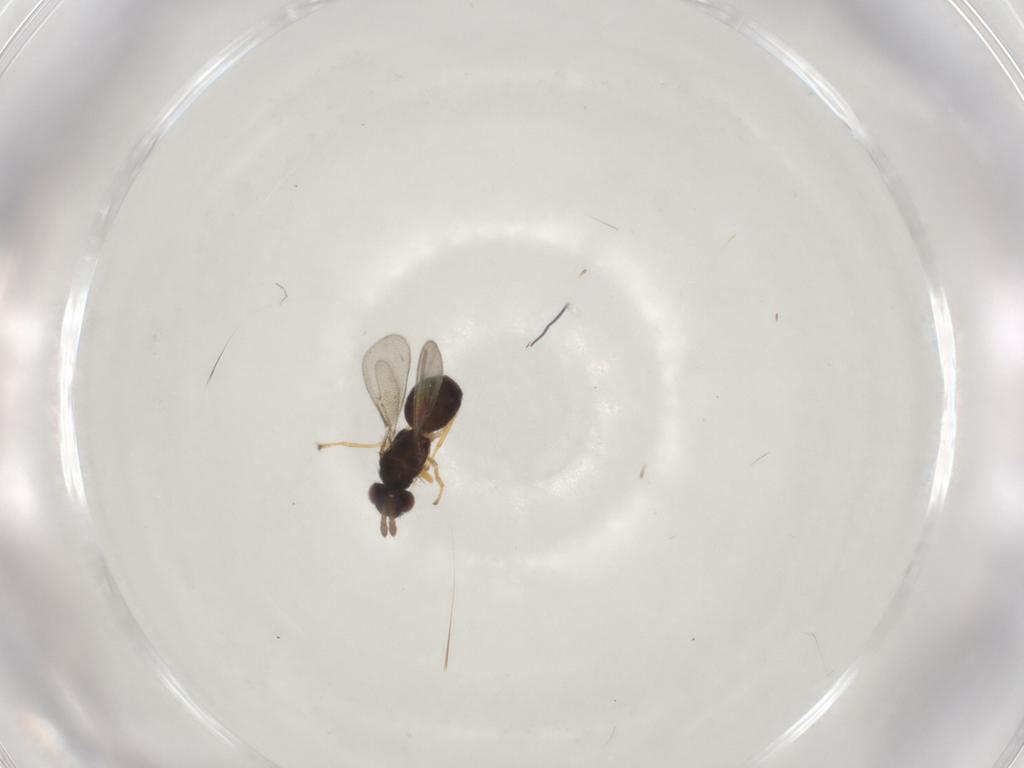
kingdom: Animalia
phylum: Arthropoda
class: Insecta
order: Hymenoptera
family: Eulophidae
